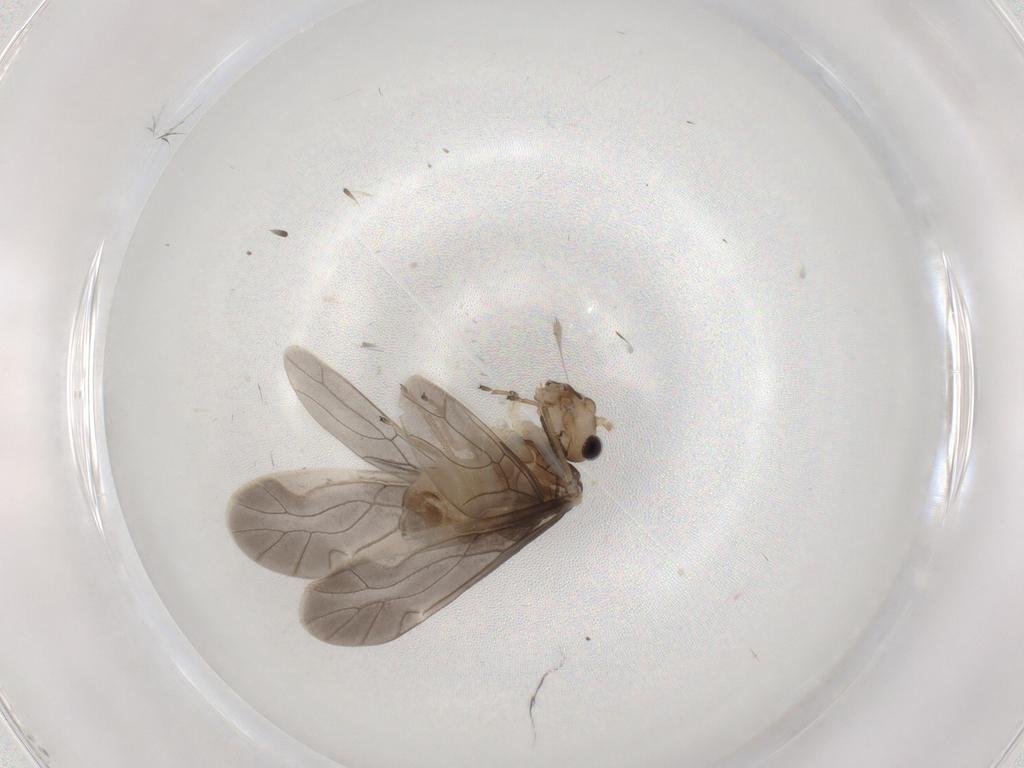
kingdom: Animalia
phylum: Arthropoda
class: Insecta
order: Psocodea
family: Caeciliusidae
